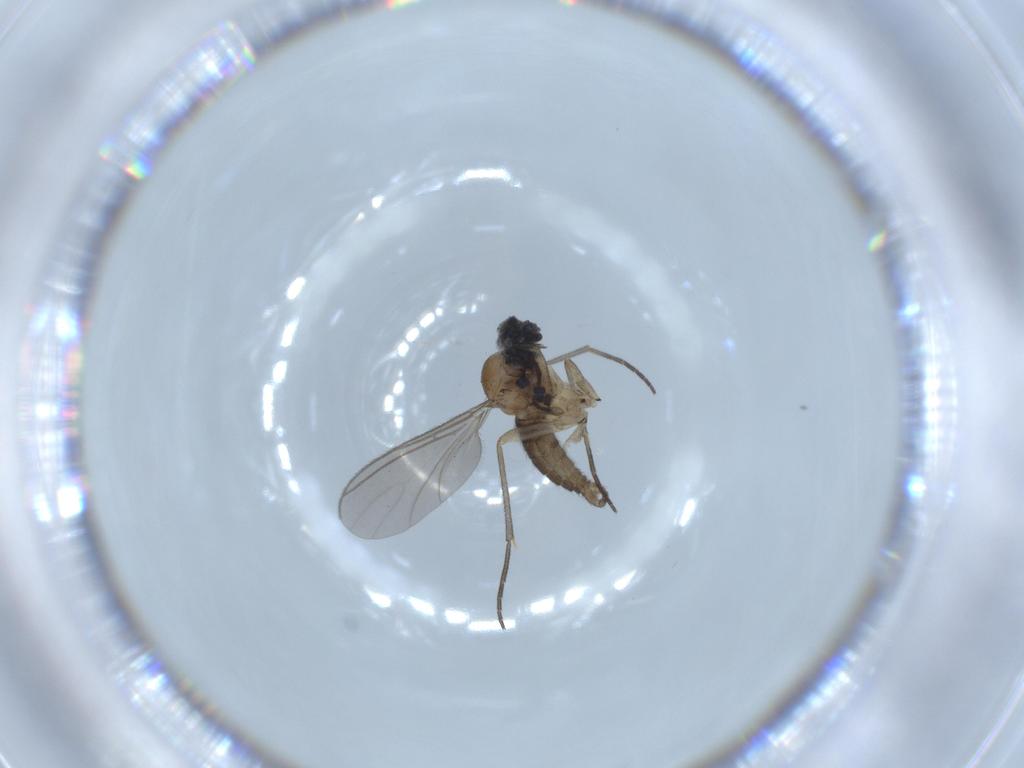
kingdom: Animalia
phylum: Arthropoda
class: Insecta
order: Diptera
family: Sciaridae
